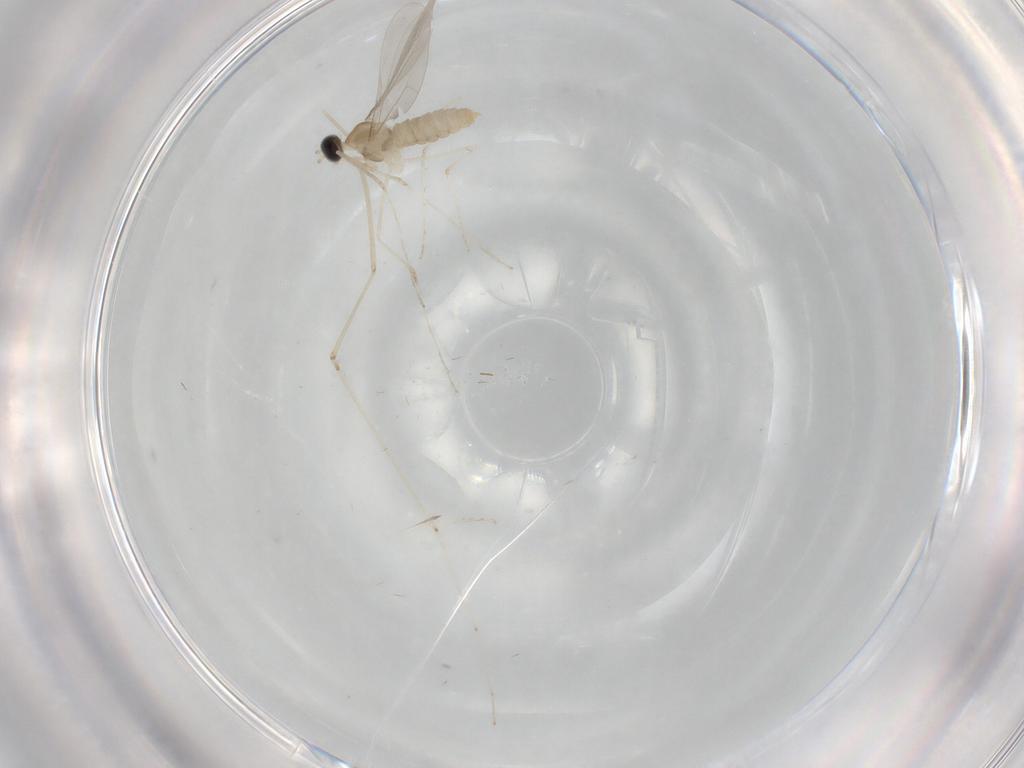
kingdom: Animalia
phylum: Arthropoda
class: Insecta
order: Diptera
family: Cecidomyiidae
